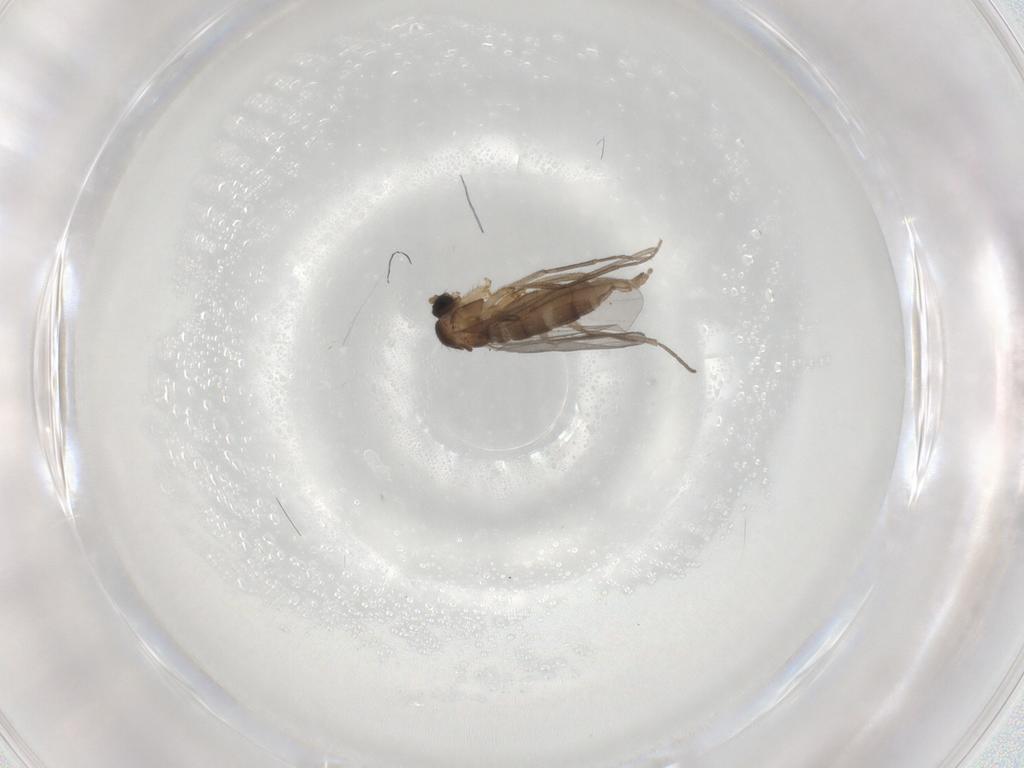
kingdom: Animalia
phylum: Arthropoda
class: Insecta
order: Diptera
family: Sciaridae
